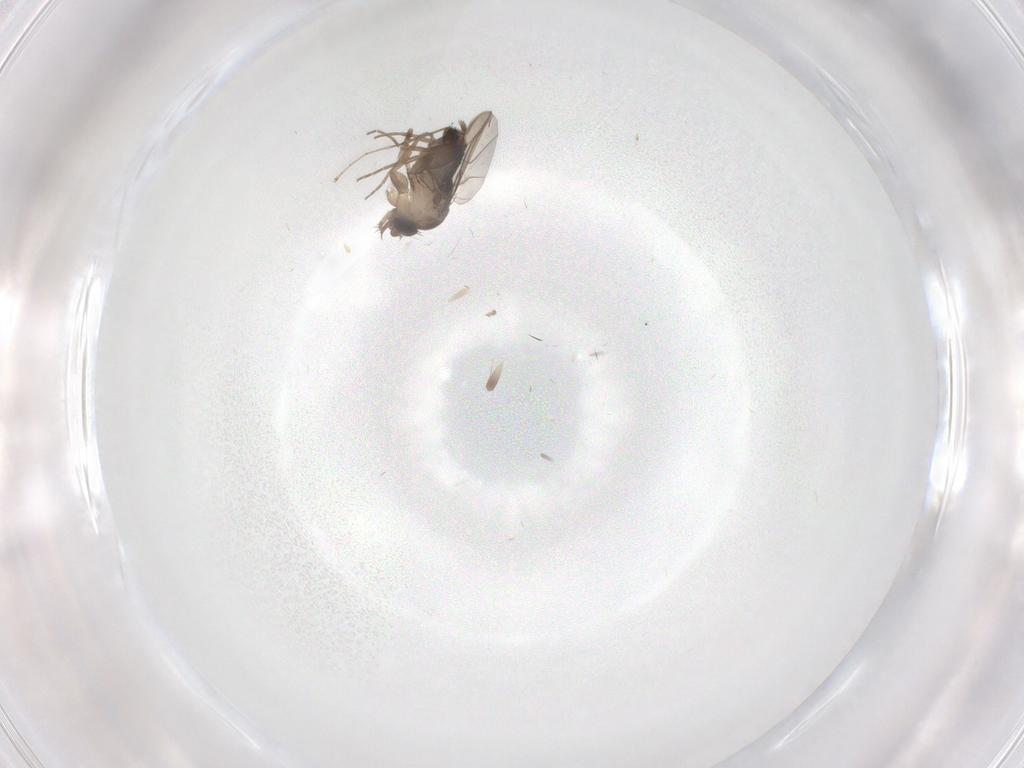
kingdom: Animalia
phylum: Arthropoda
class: Insecta
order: Diptera
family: Phoridae
